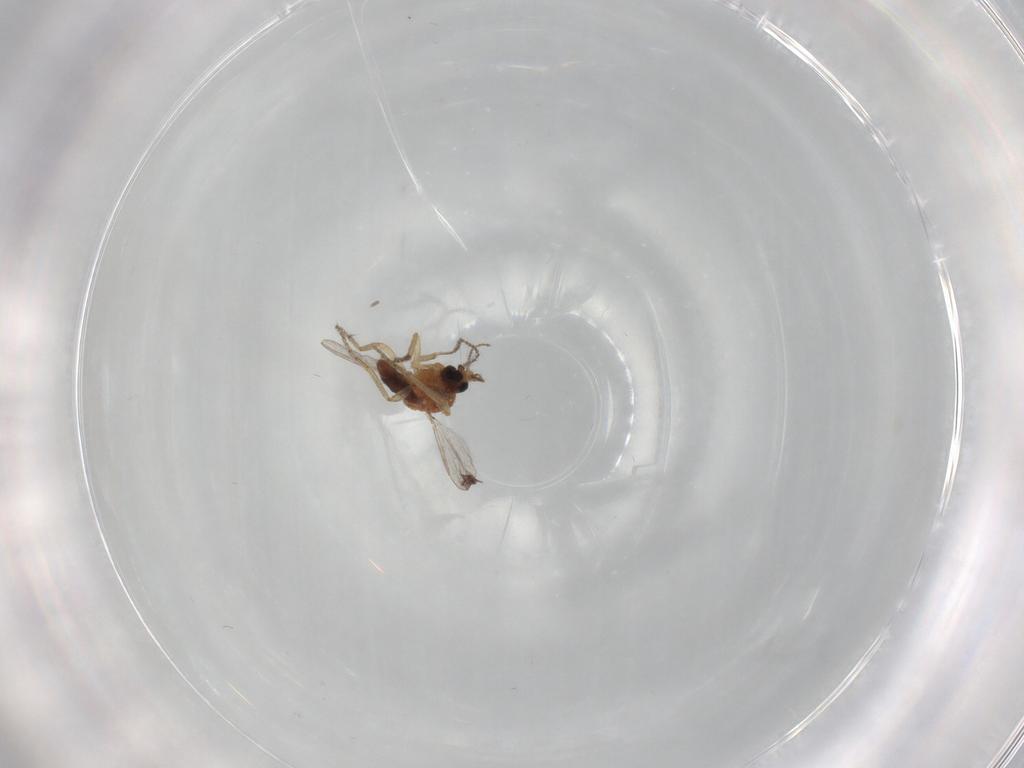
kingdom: Animalia
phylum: Arthropoda
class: Insecta
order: Diptera
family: Ceratopogonidae
